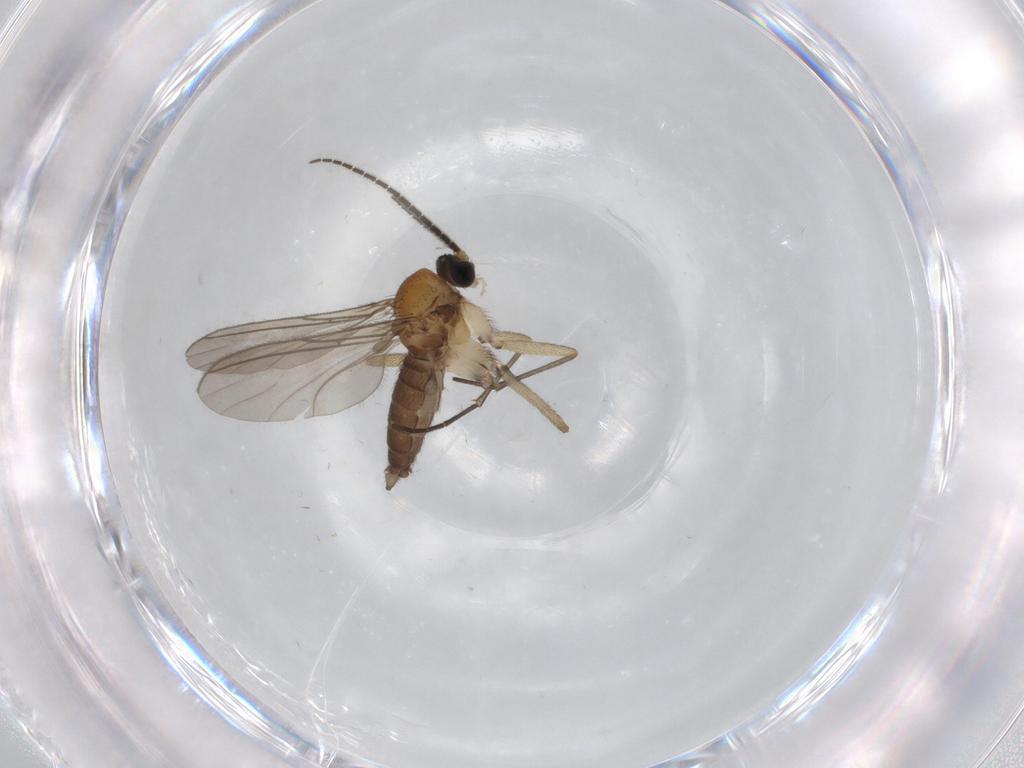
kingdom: Animalia
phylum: Arthropoda
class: Insecta
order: Diptera
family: Sciaridae
